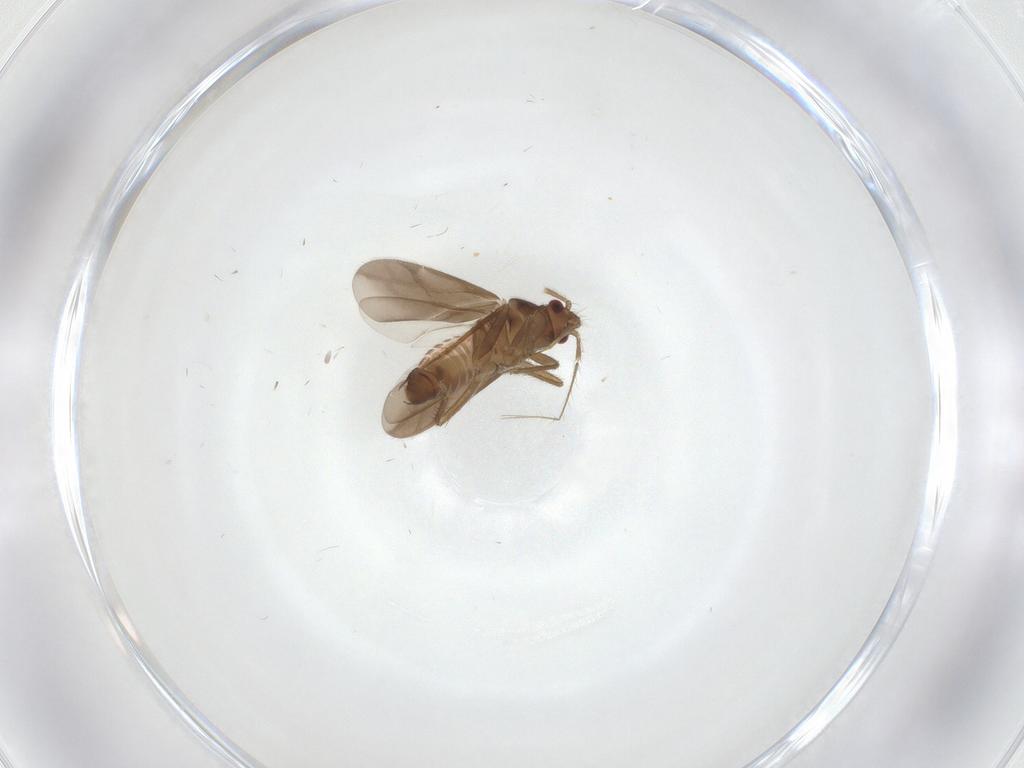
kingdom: Animalia
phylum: Arthropoda
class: Insecta
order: Hemiptera
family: Ceratocombidae
